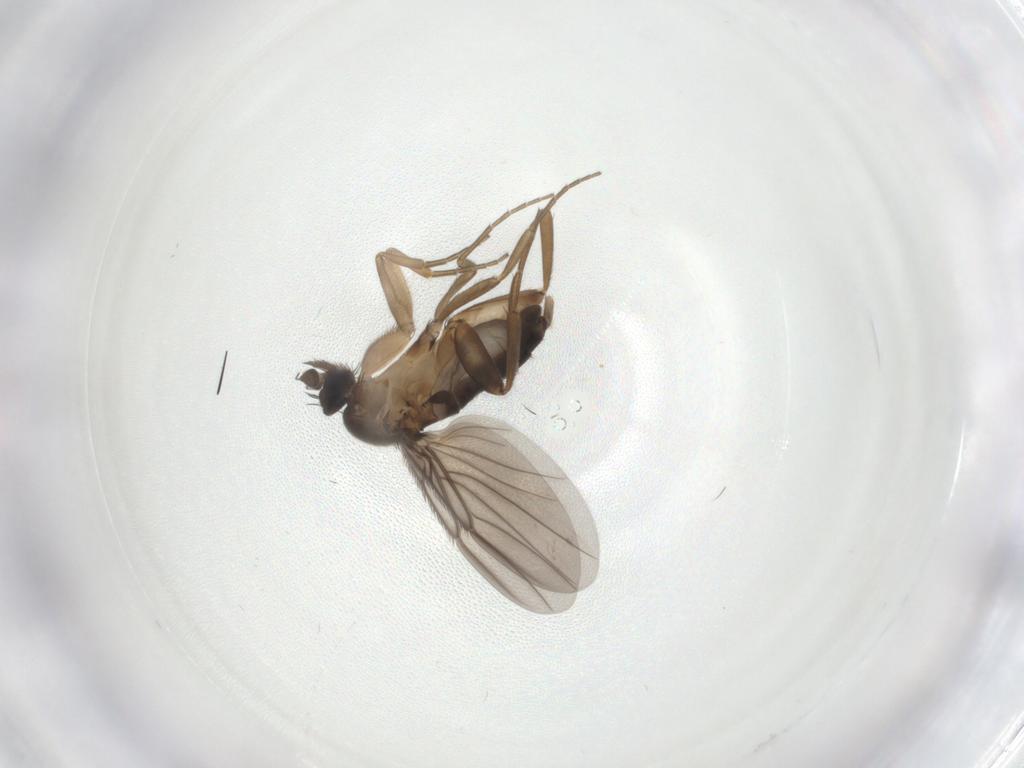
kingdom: Animalia
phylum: Arthropoda
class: Insecta
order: Diptera
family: Phoridae
